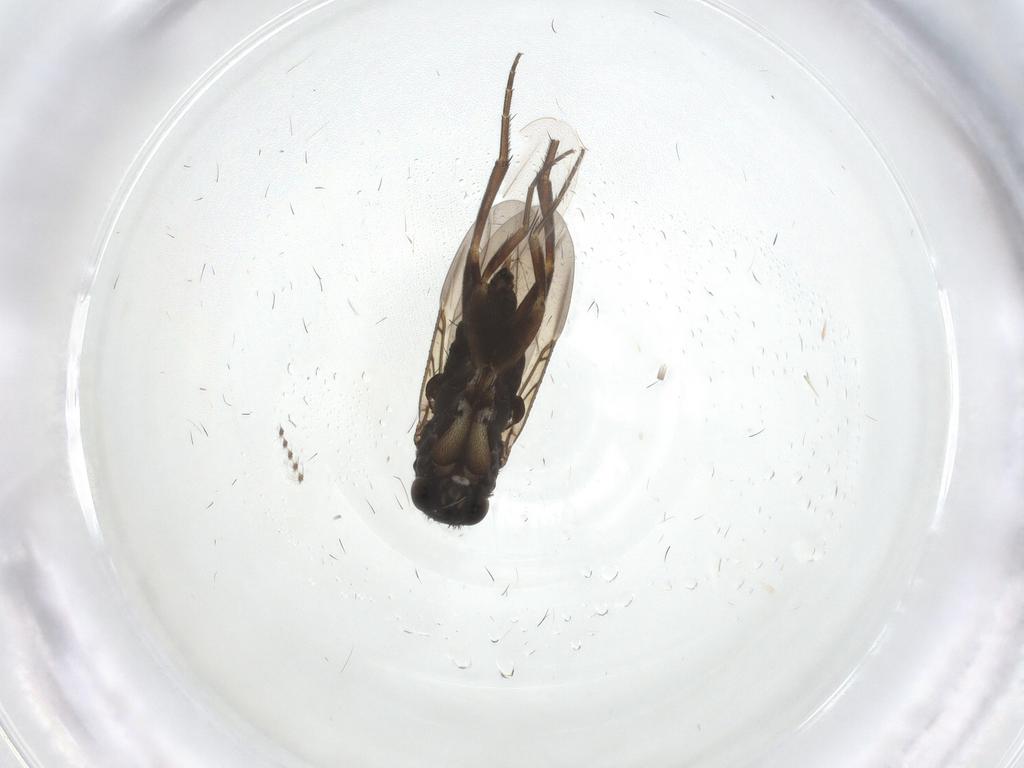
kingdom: Animalia
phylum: Arthropoda
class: Insecta
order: Diptera
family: Phoridae
